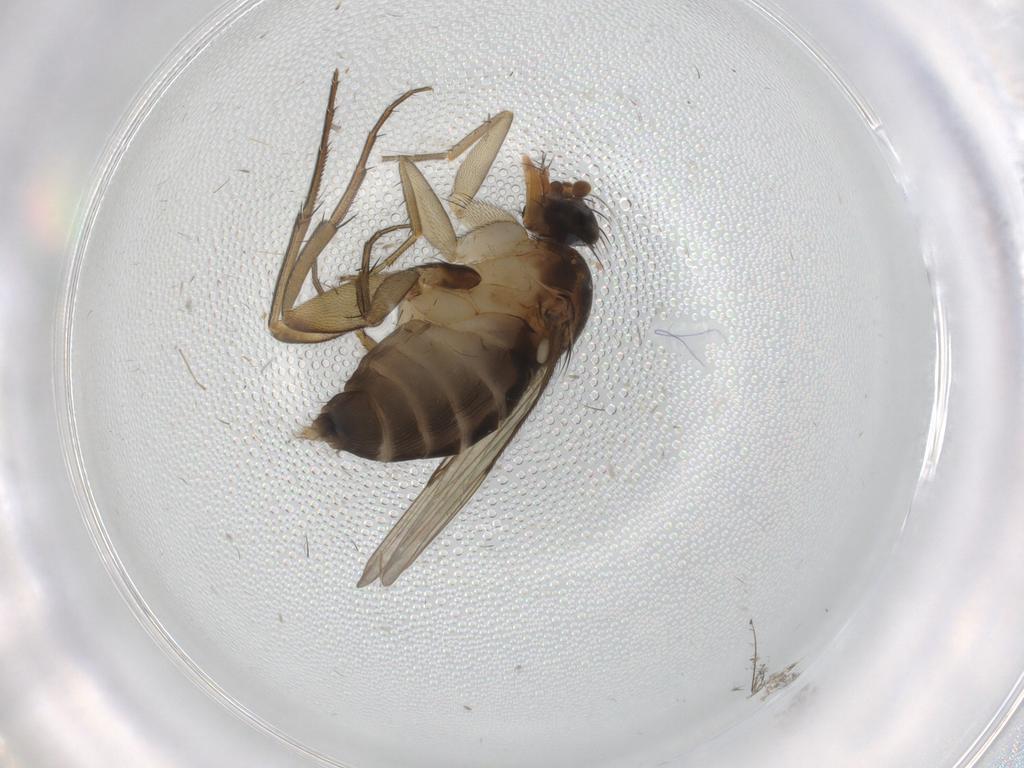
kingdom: Animalia
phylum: Arthropoda
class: Insecta
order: Diptera
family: Phoridae
